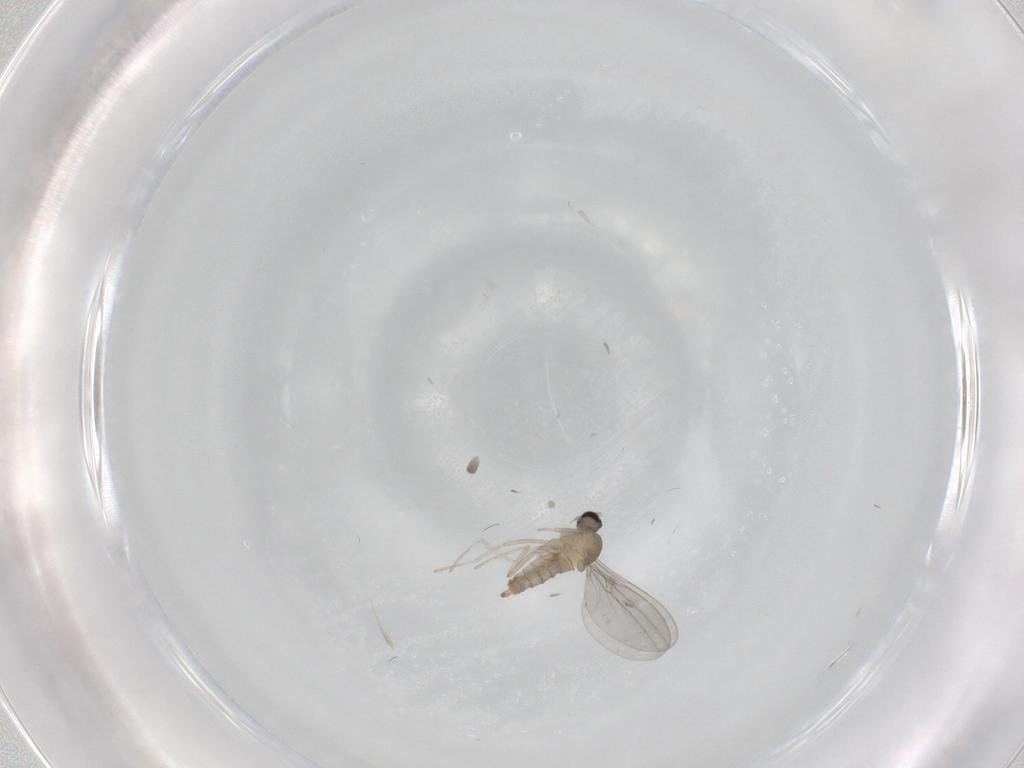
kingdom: Animalia
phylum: Arthropoda
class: Insecta
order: Diptera
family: Cecidomyiidae
